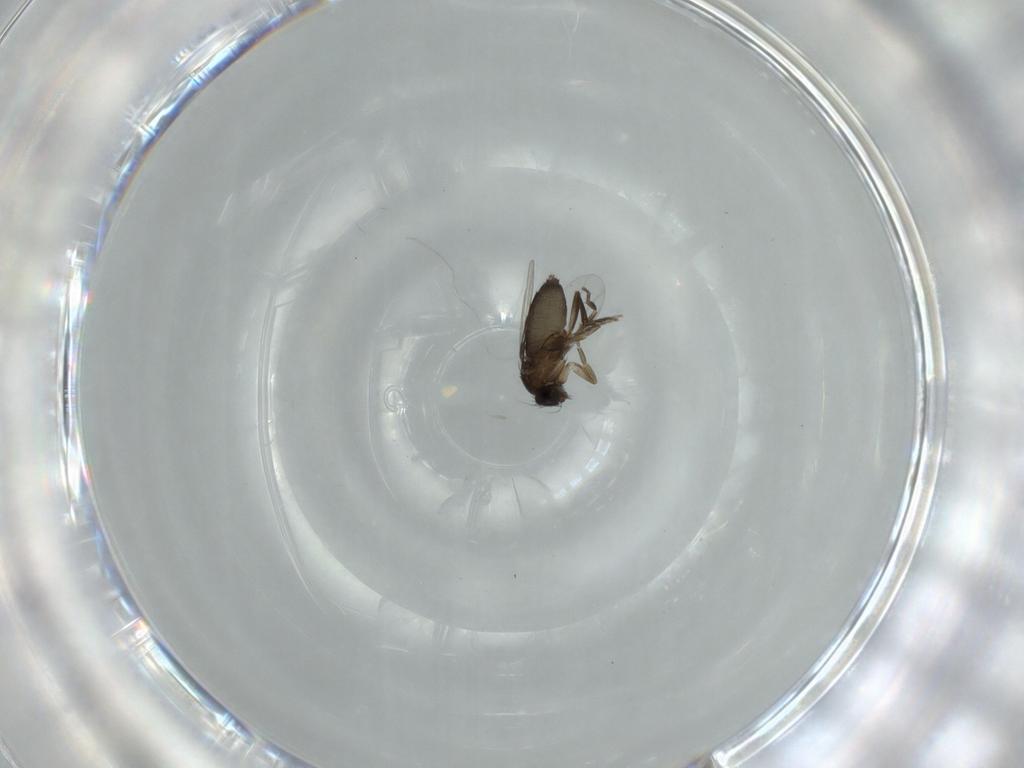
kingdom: Animalia
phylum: Arthropoda
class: Insecta
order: Diptera
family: Phoridae
